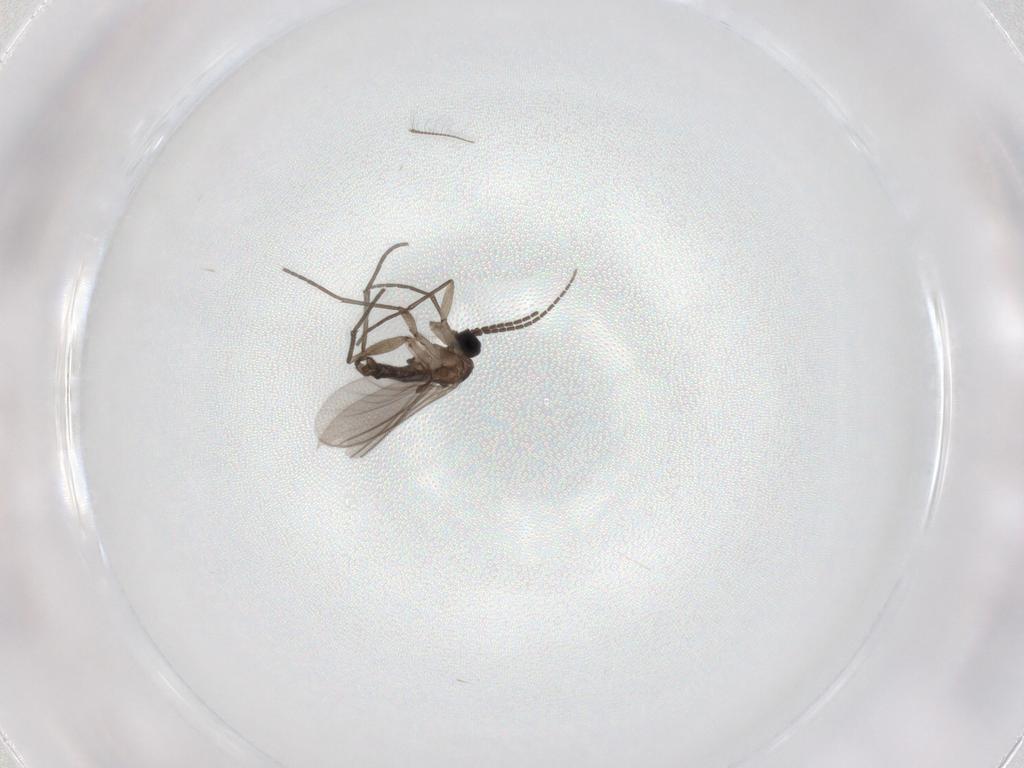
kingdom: Animalia
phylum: Arthropoda
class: Insecta
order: Diptera
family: Sciaridae
